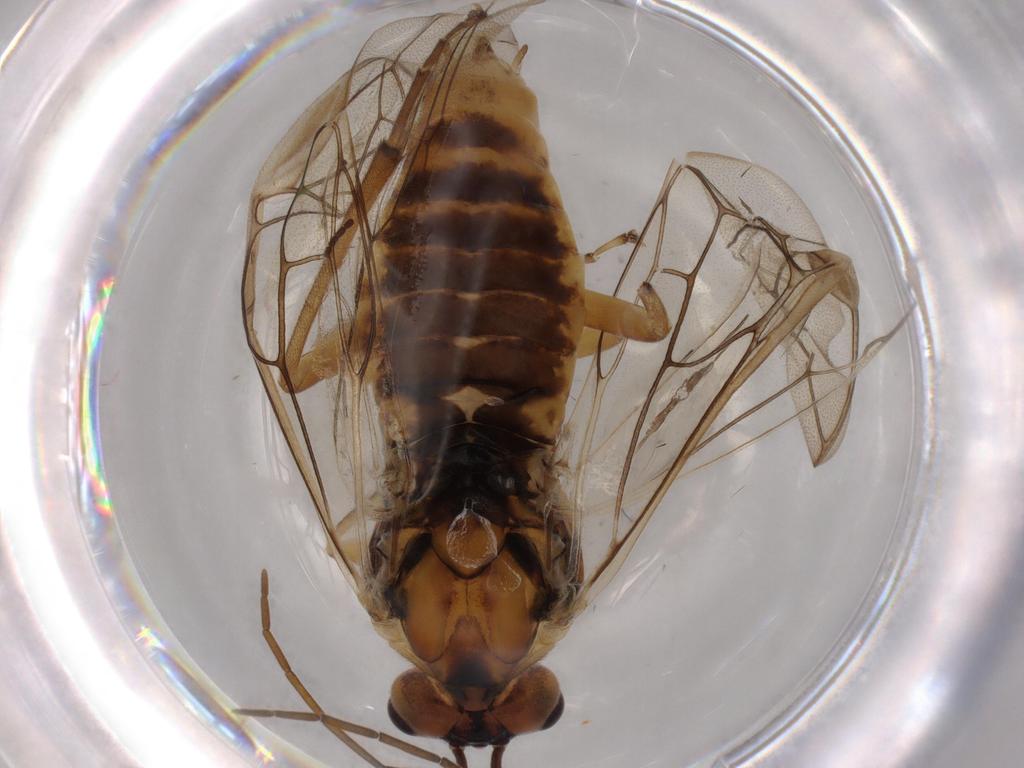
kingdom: Animalia
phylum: Arthropoda
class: Insecta
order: Hymenoptera
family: Tenthredinidae
